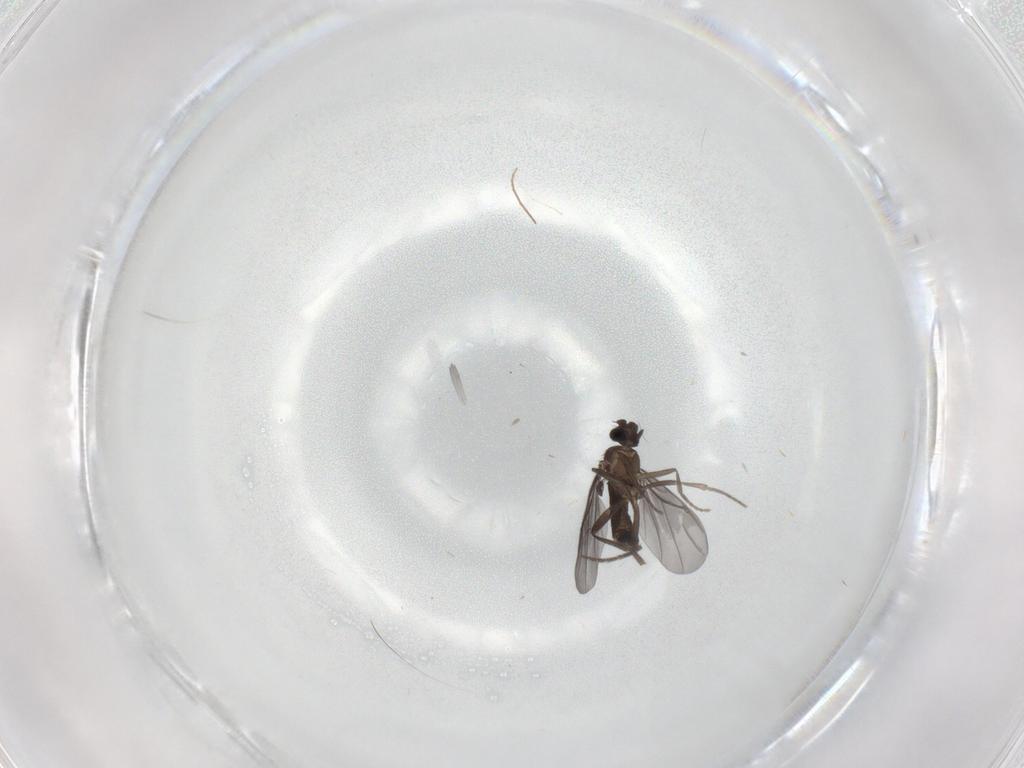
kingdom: Animalia
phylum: Arthropoda
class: Insecta
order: Diptera
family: Phoridae
